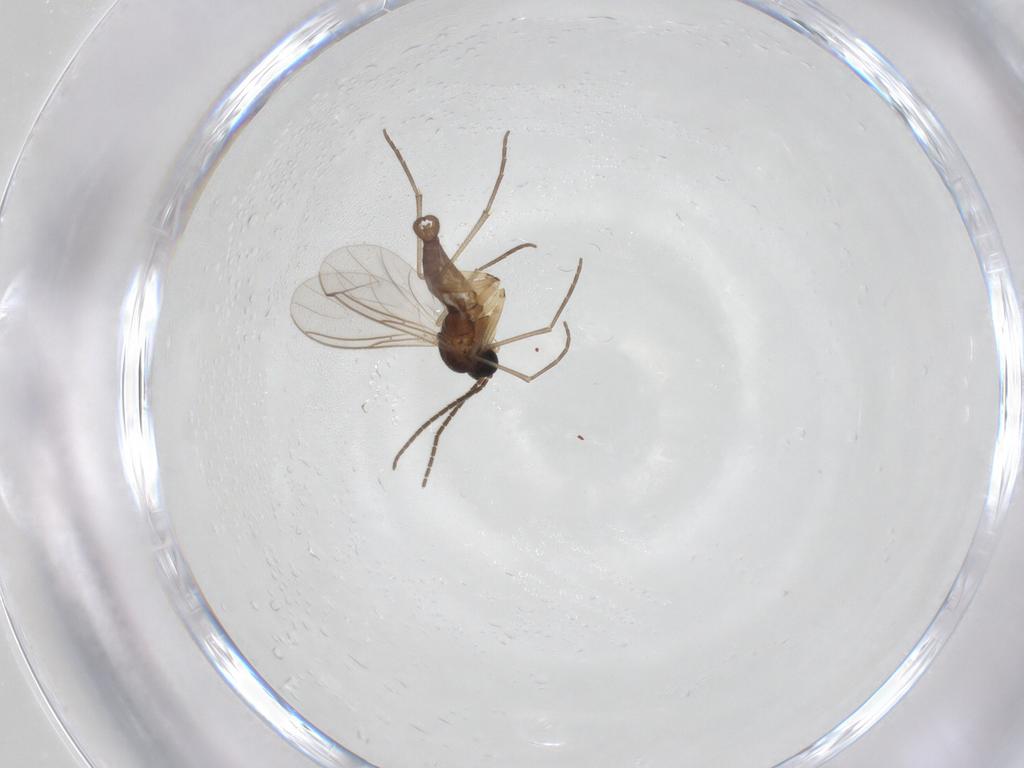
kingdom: Animalia
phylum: Arthropoda
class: Insecta
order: Diptera
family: Sciaridae
